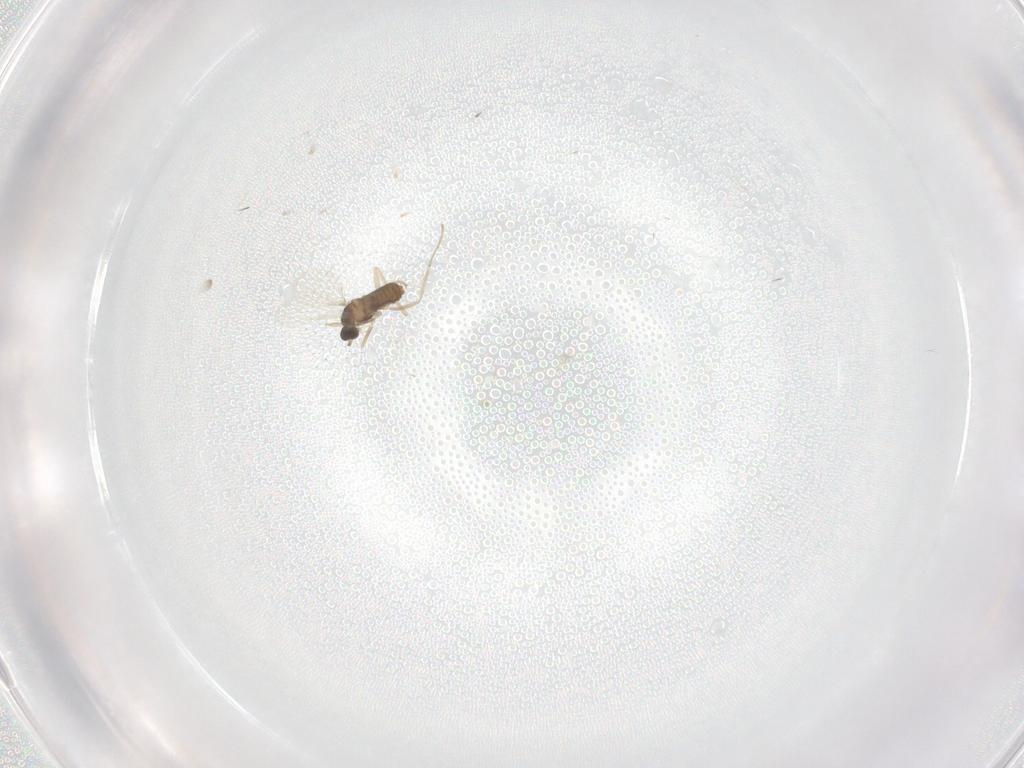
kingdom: Animalia
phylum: Arthropoda
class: Insecta
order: Diptera
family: Cecidomyiidae
